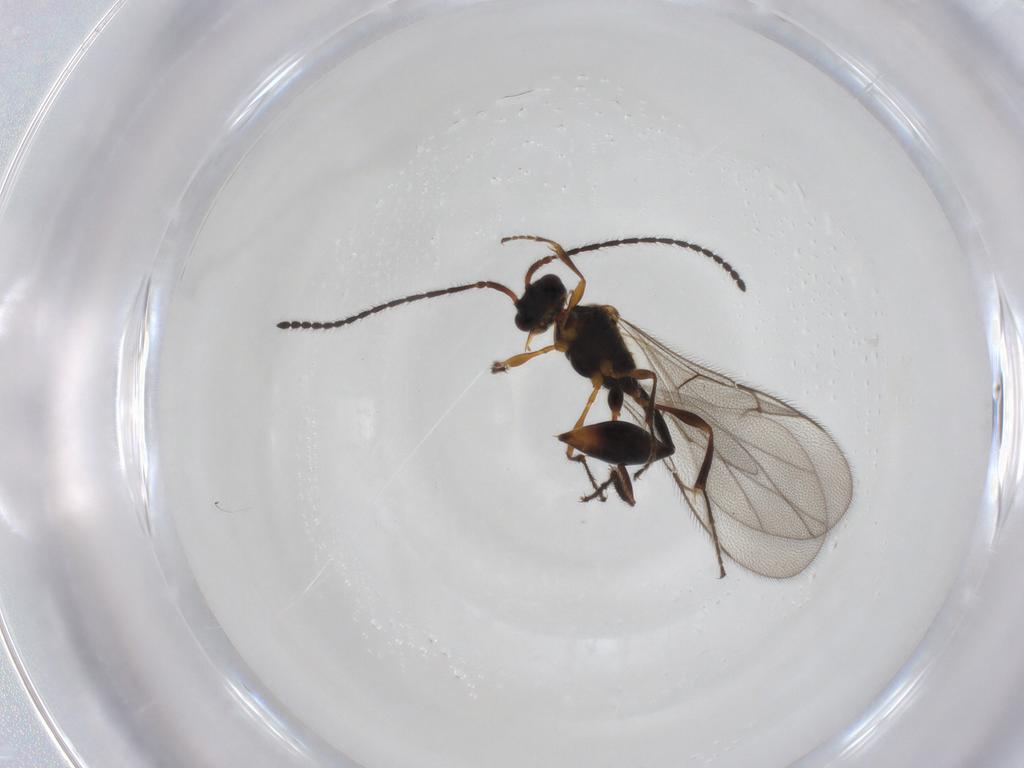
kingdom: Animalia
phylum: Arthropoda
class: Insecta
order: Hymenoptera
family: Diapriidae
